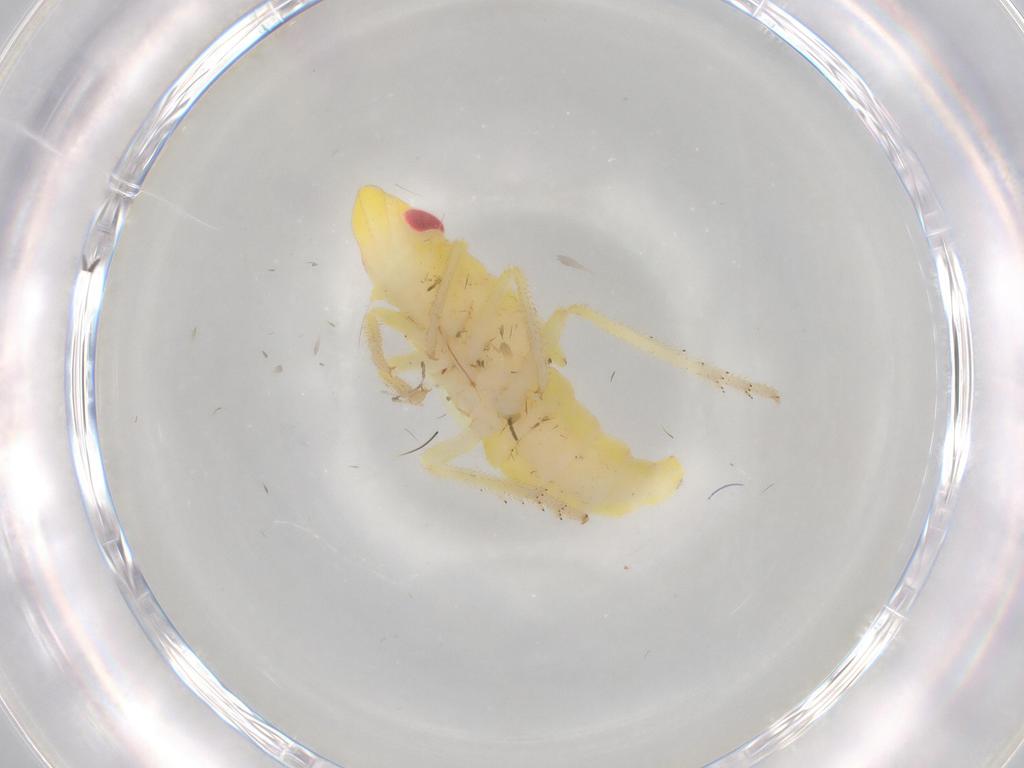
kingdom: Animalia
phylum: Arthropoda
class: Insecta
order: Hemiptera
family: Tropiduchidae
